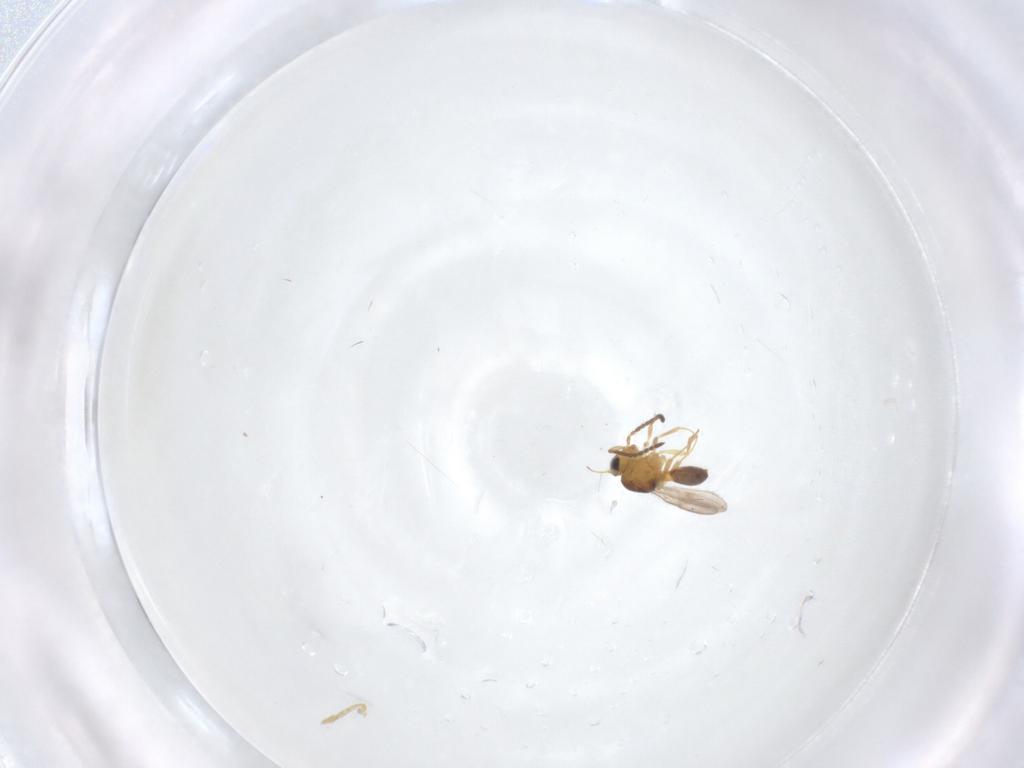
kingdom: Animalia
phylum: Arthropoda
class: Insecta
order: Hymenoptera
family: Scelionidae
